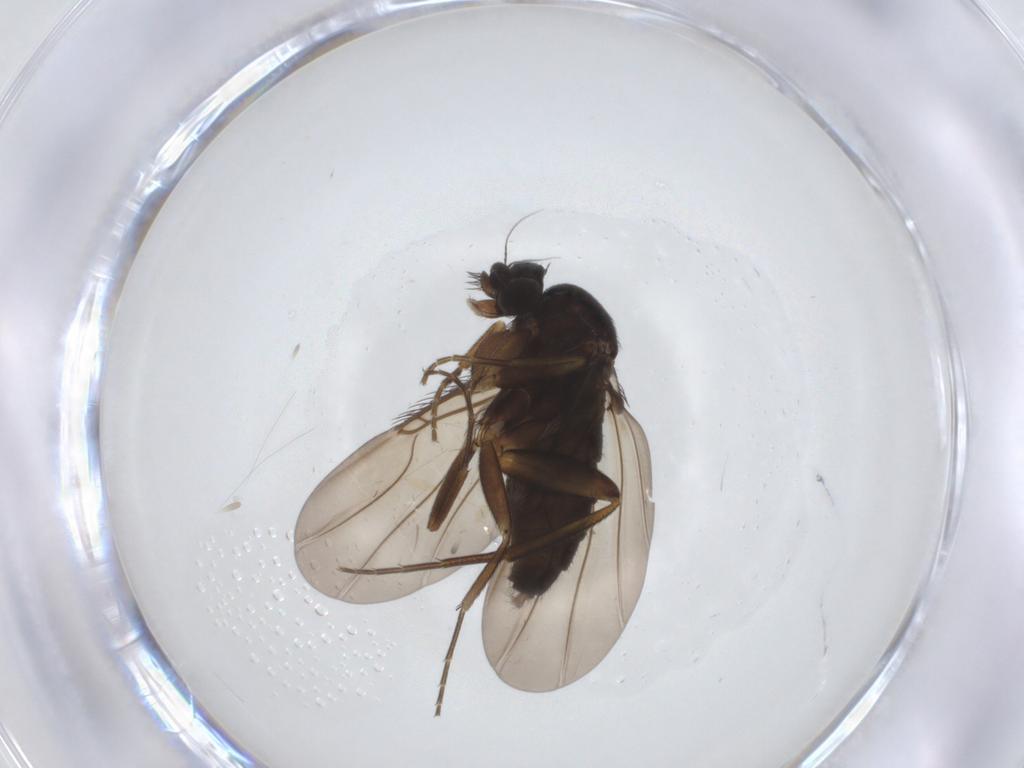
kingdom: Animalia
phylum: Arthropoda
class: Insecta
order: Diptera
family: Phoridae
